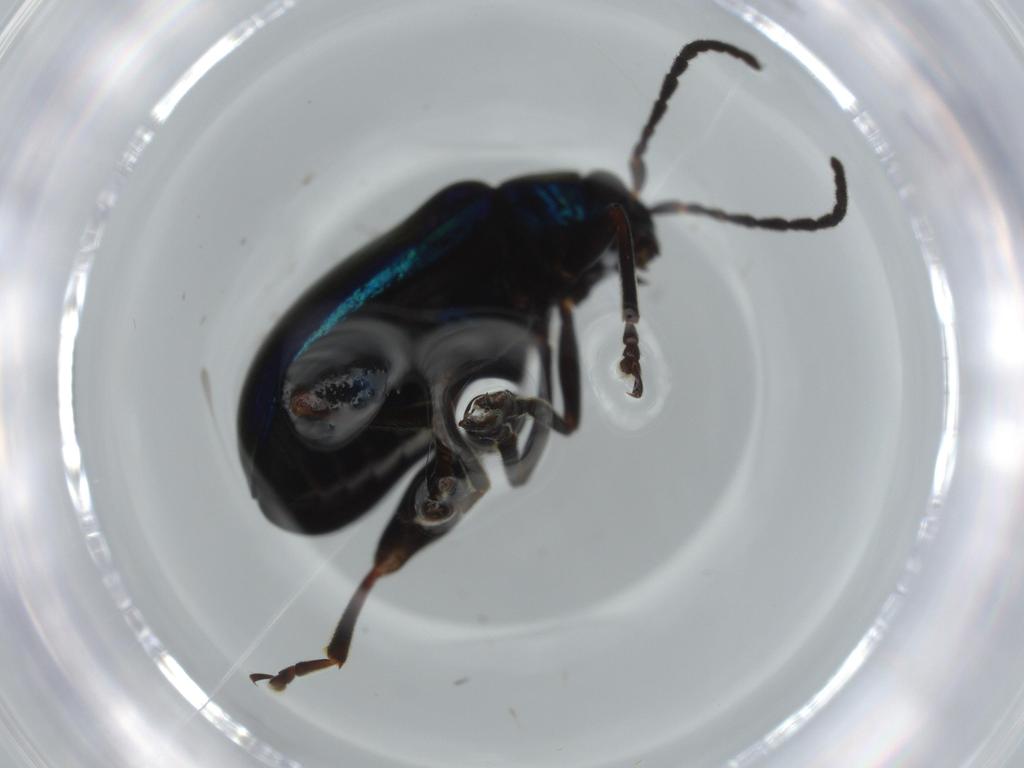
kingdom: Animalia
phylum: Arthropoda
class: Insecta
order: Coleoptera
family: Chrysomelidae
